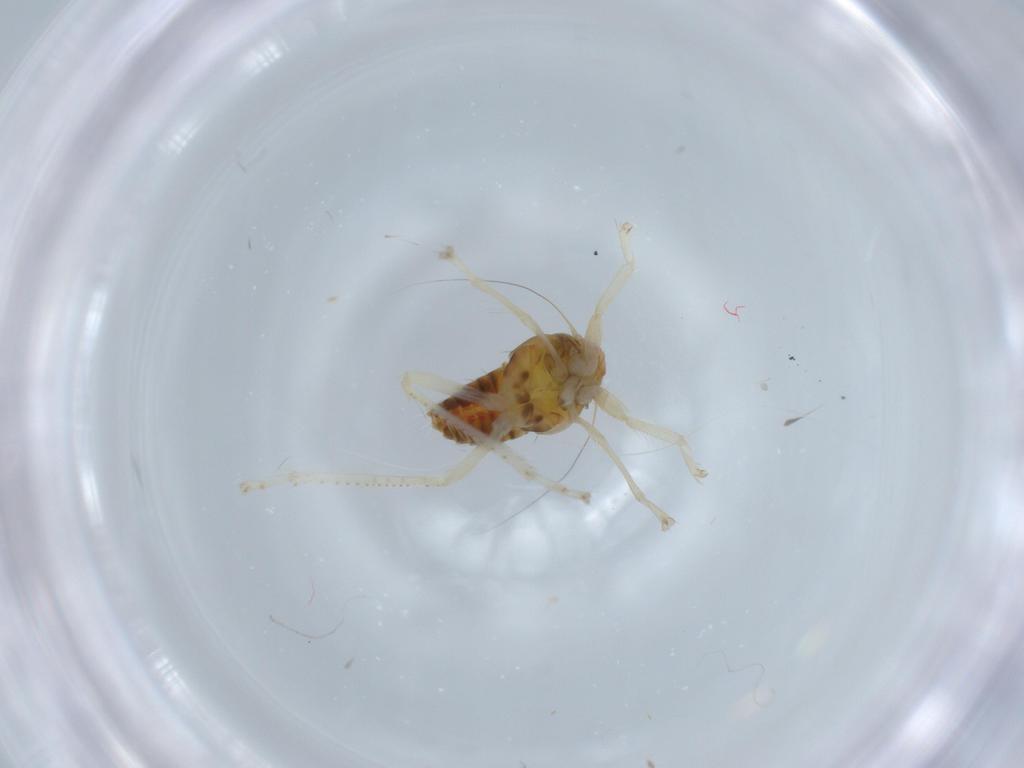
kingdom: Animalia
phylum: Arthropoda
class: Insecta
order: Hemiptera
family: Cicadellidae
